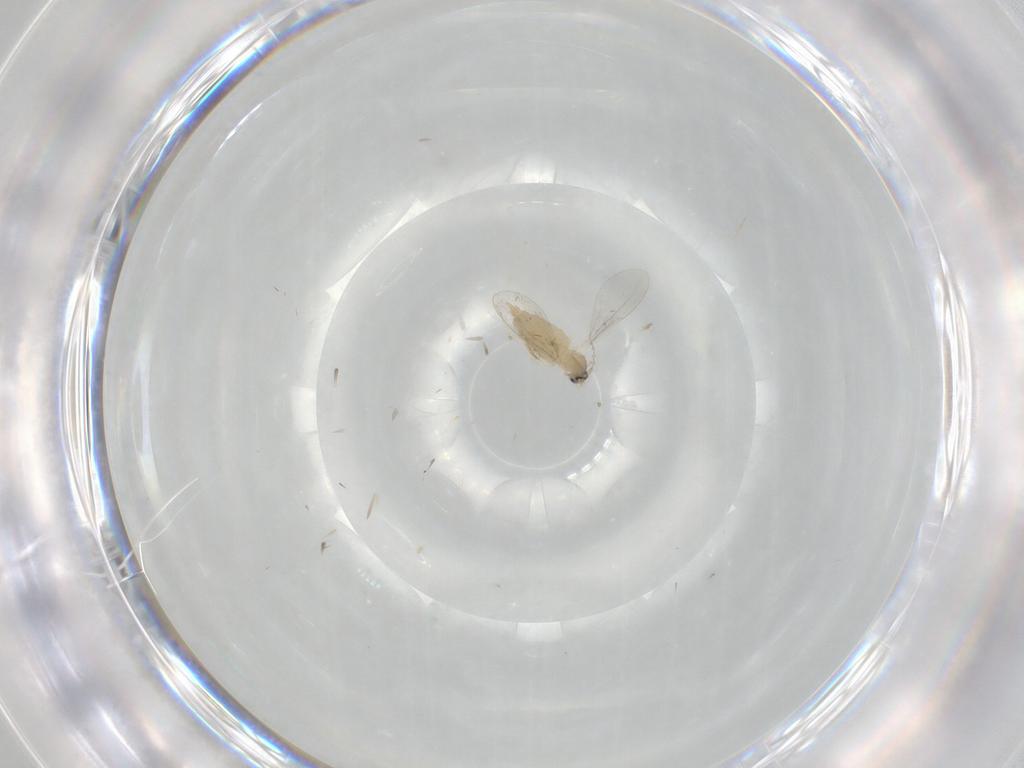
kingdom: Animalia
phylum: Arthropoda
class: Insecta
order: Diptera
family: Cecidomyiidae
